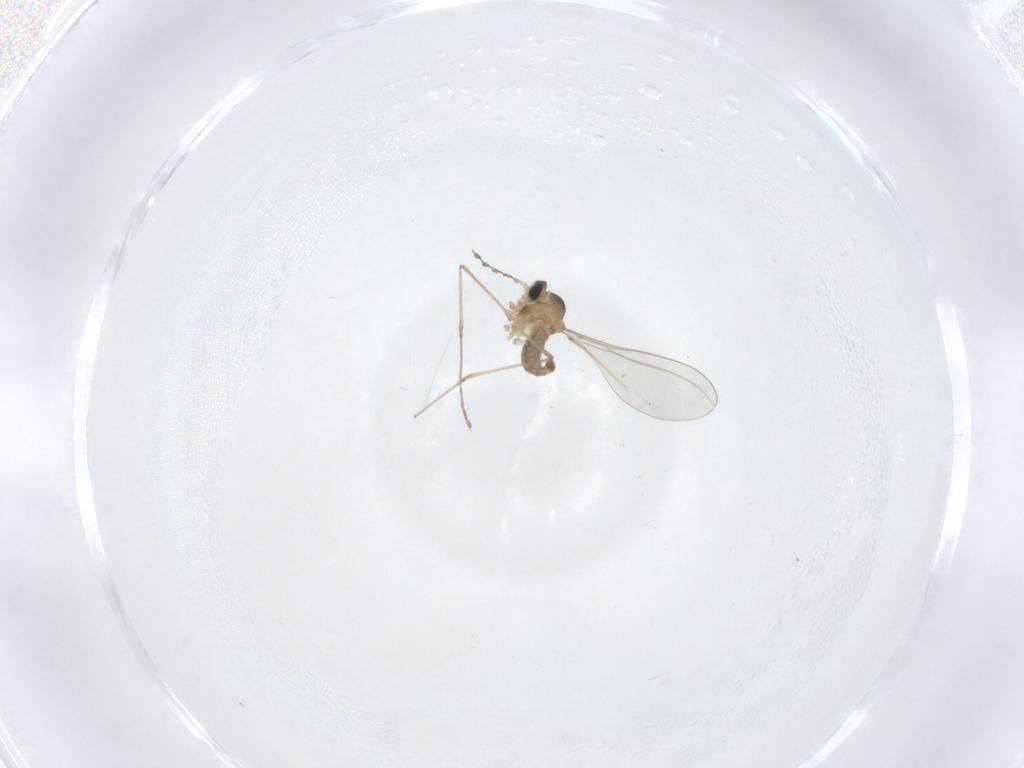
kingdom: Animalia
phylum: Arthropoda
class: Insecta
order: Diptera
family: Cecidomyiidae
